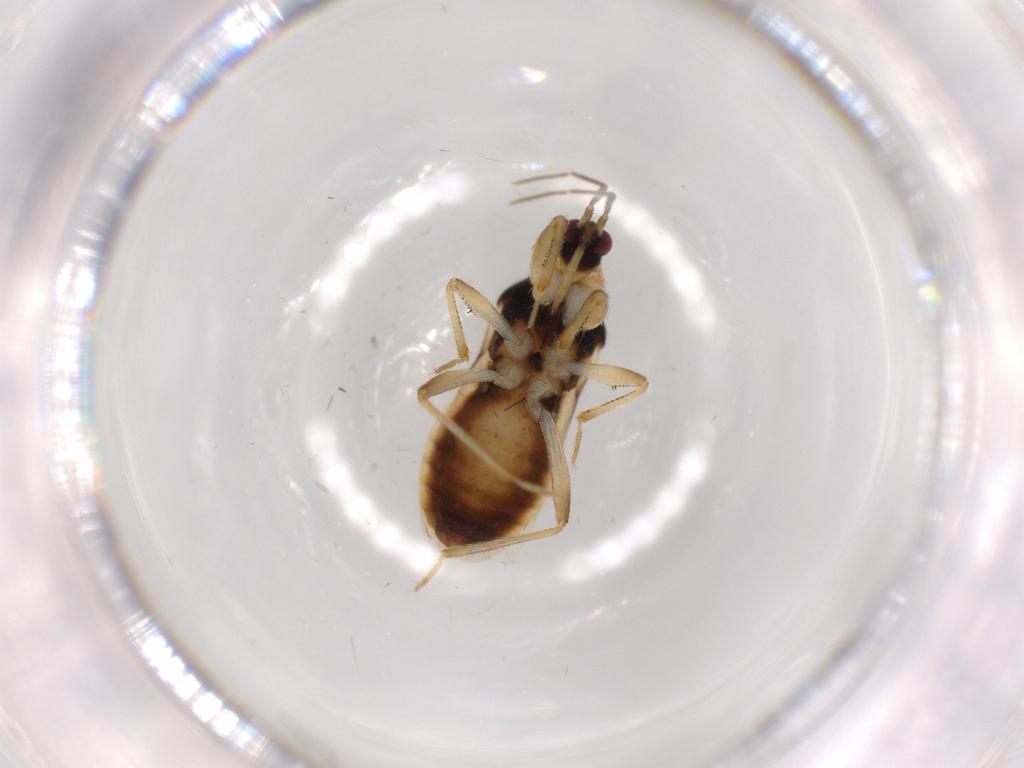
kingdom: Animalia
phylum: Arthropoda
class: Insecta
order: Hemiptera
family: Nabidae
